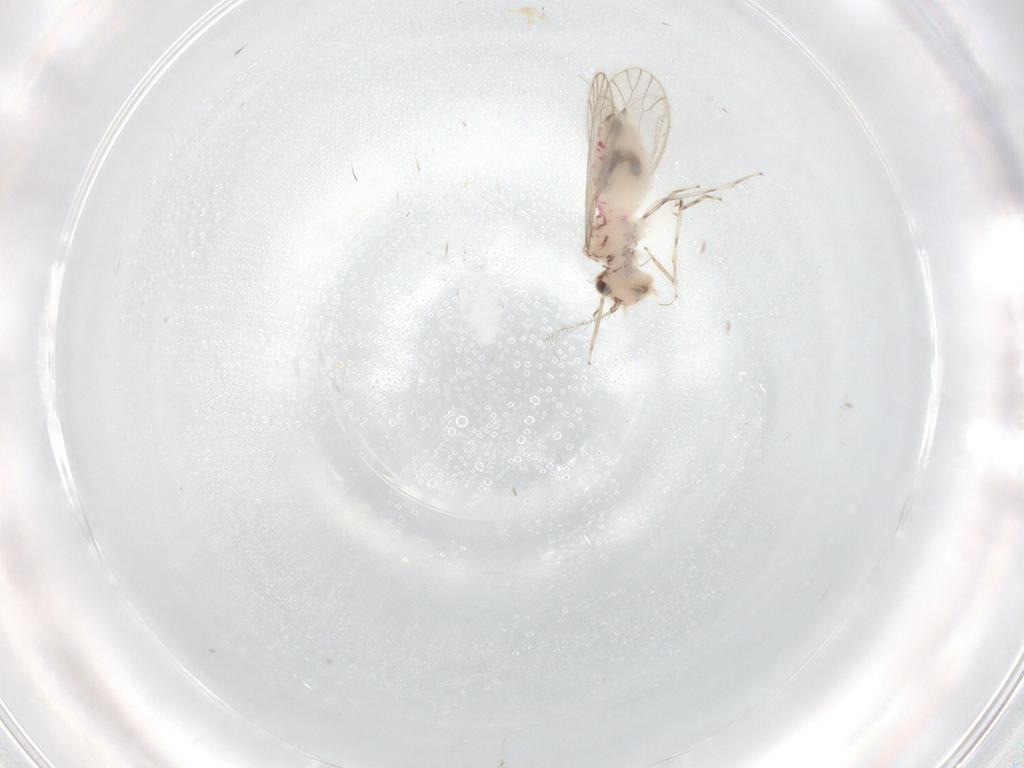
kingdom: Animalia
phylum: Arthropoda
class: Insecta
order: Psocodea
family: Caeciliusidae
